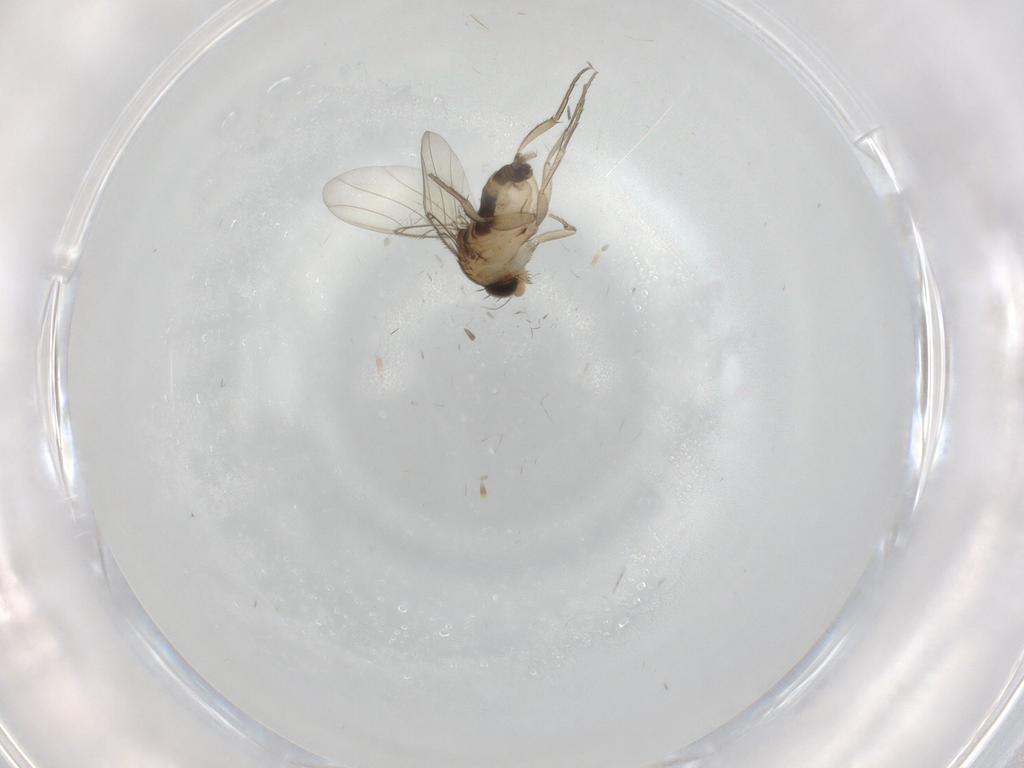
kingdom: Animalia
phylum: Arthropoda
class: Insecta
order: Diptera
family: Phoridae
